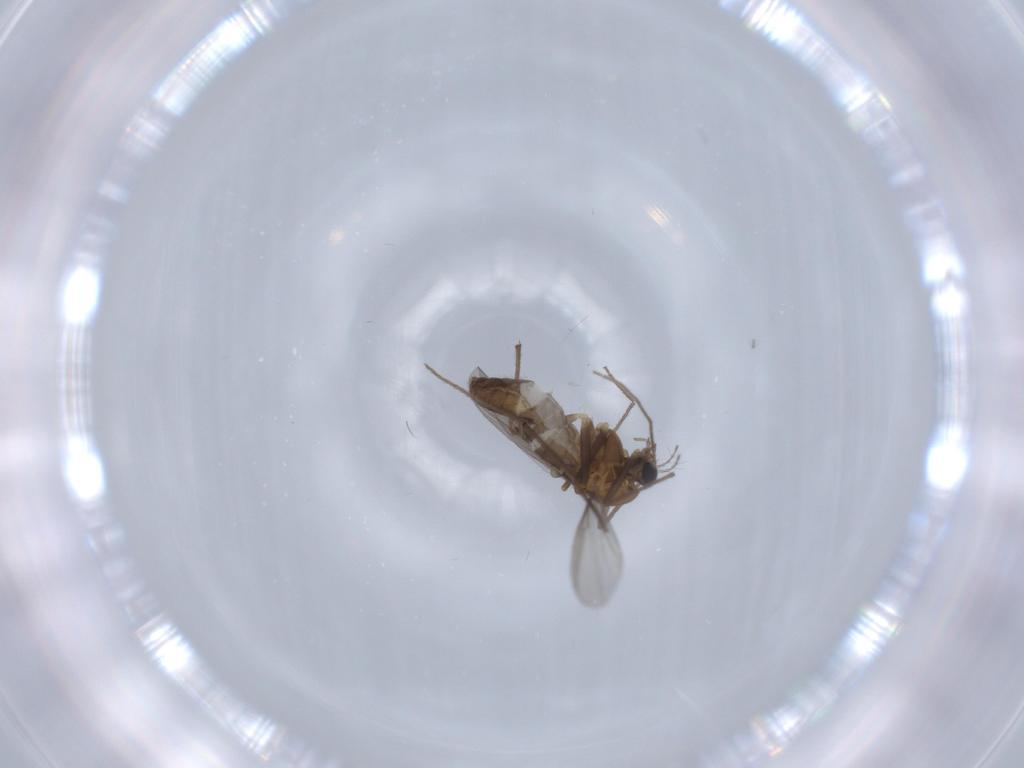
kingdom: Animalia
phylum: Arthropoda
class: Insecta
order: Diptera
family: Chironomidae
